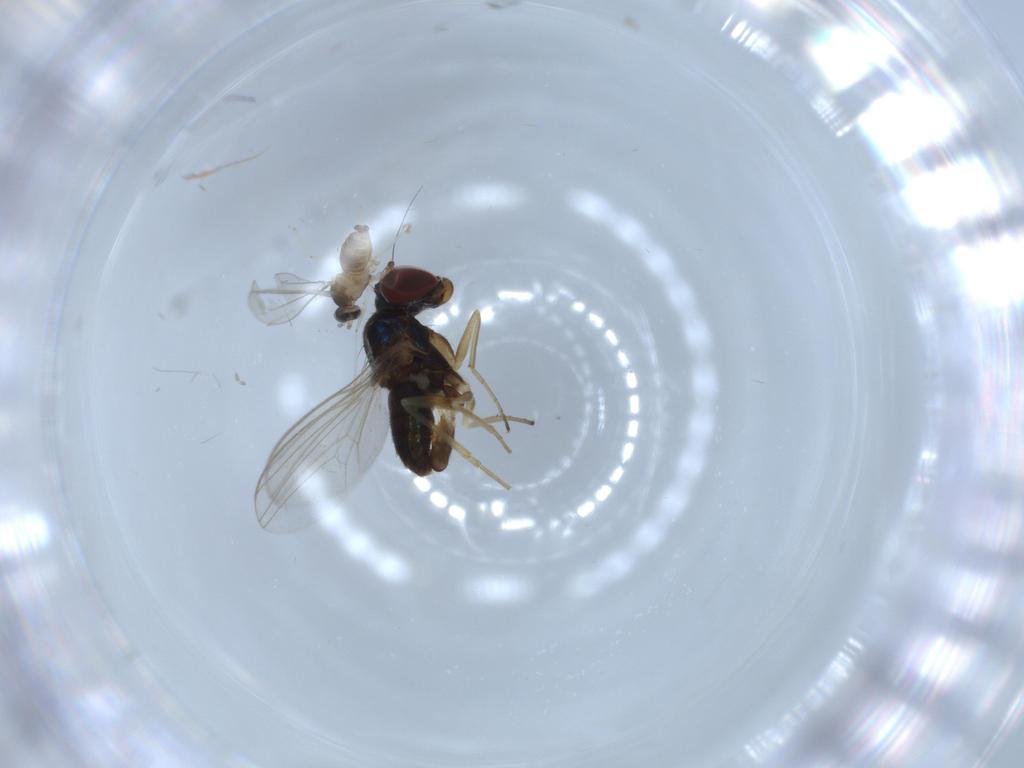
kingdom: Animalia
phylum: Arthropoda
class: Insecta
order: Diptera
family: Cecidomyiidae
